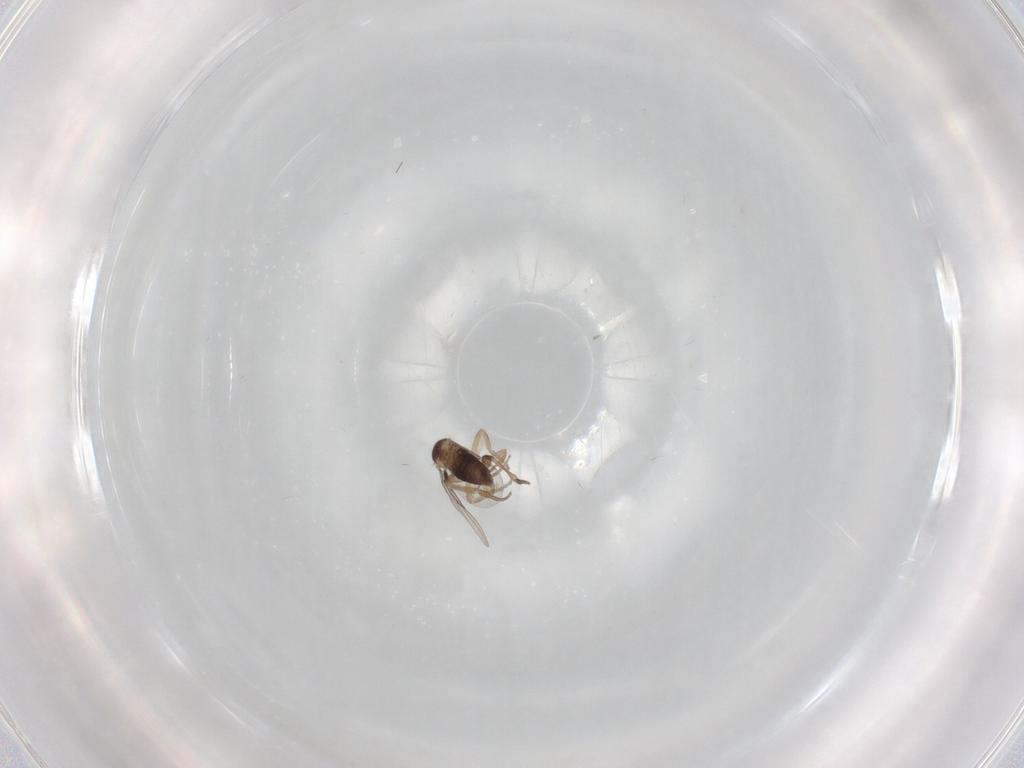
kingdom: Animalia
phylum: Arthropoda
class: Insecta
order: Diptera
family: Phoridae
